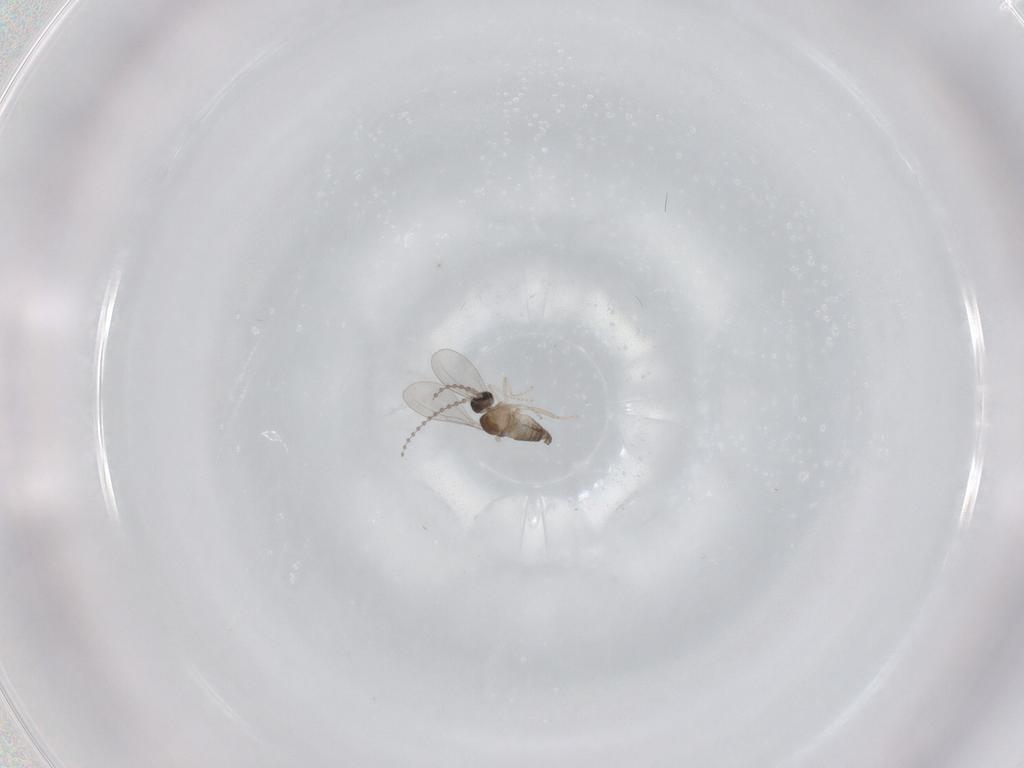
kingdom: Animalia
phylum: Arthropoda
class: Insecta
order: Diptera
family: Cecidomyiidae
